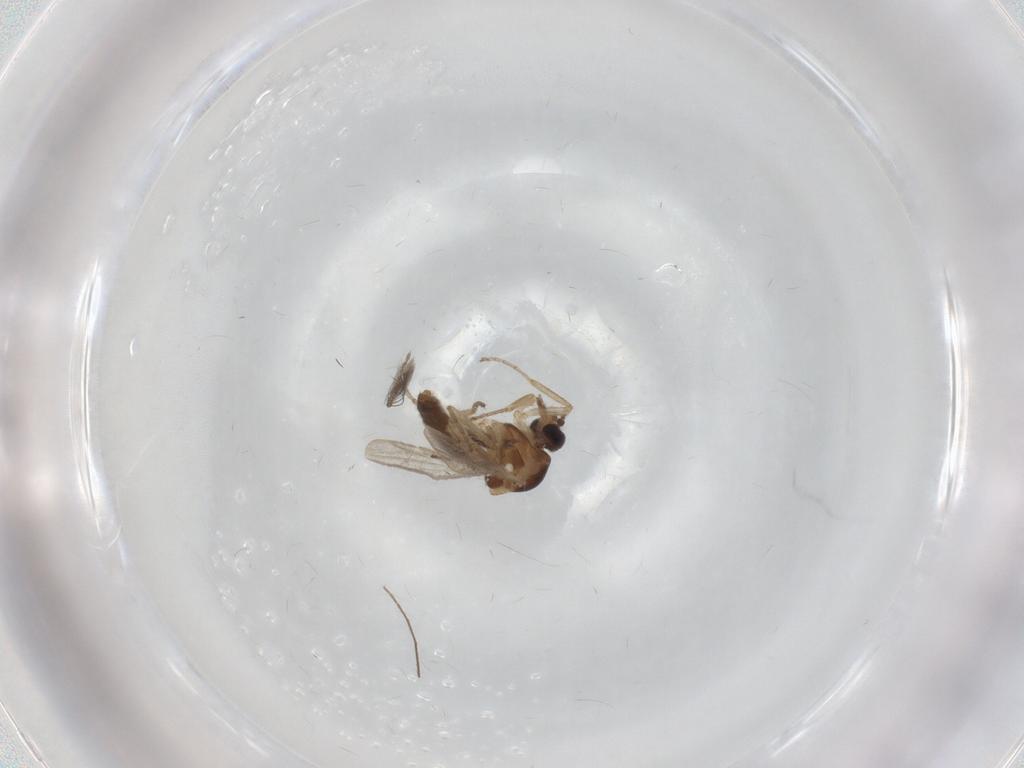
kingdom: Animalia
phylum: Arthropoda
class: Insecta
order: Diptera
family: Ceratopogonidae
